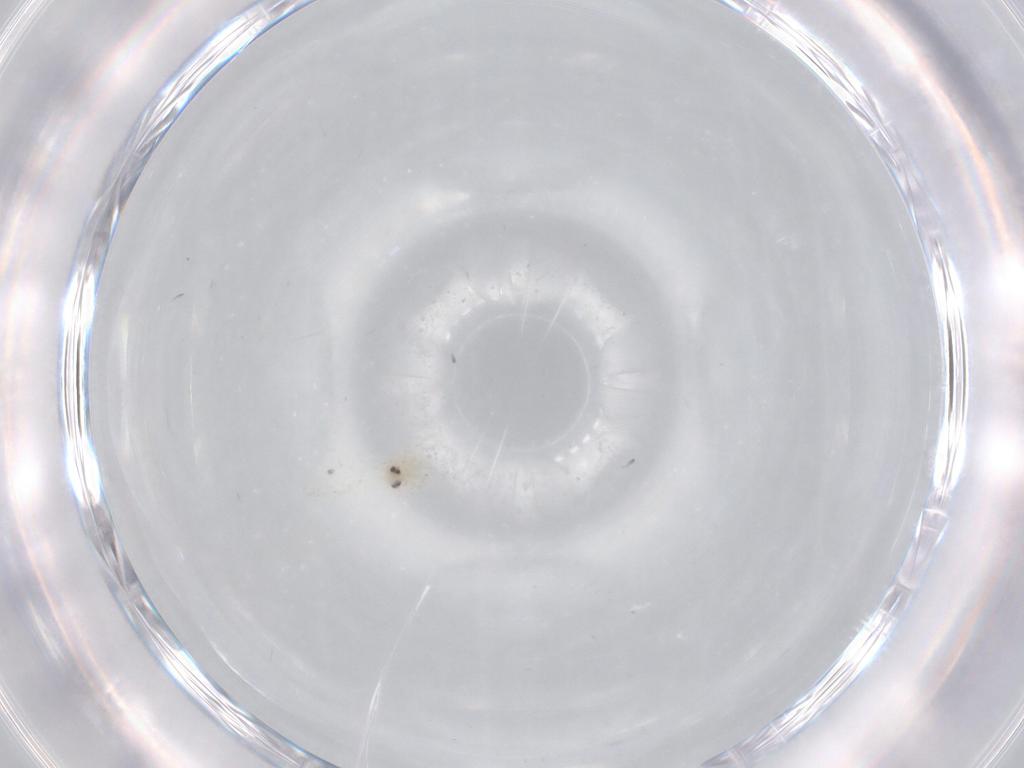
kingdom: Animalia
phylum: Arthropoda
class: Insecta
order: Hemiptera
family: Aleyrodidae
